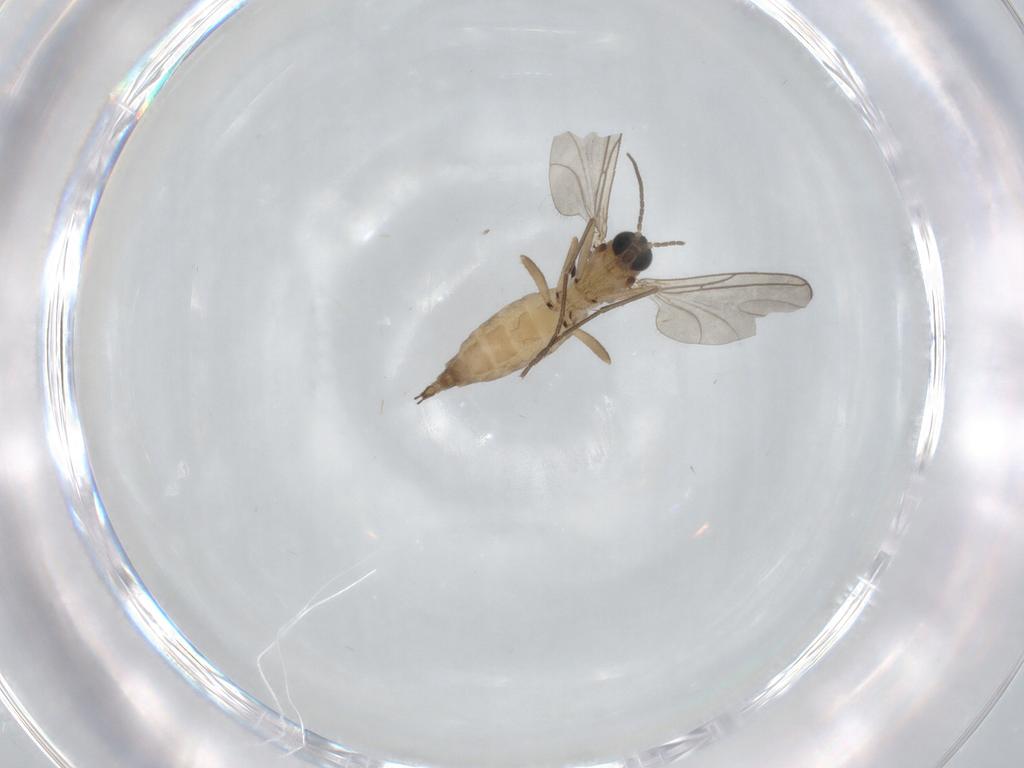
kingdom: Animalia
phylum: Arthropoda
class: Insecta
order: Diptera
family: Sciaridae
